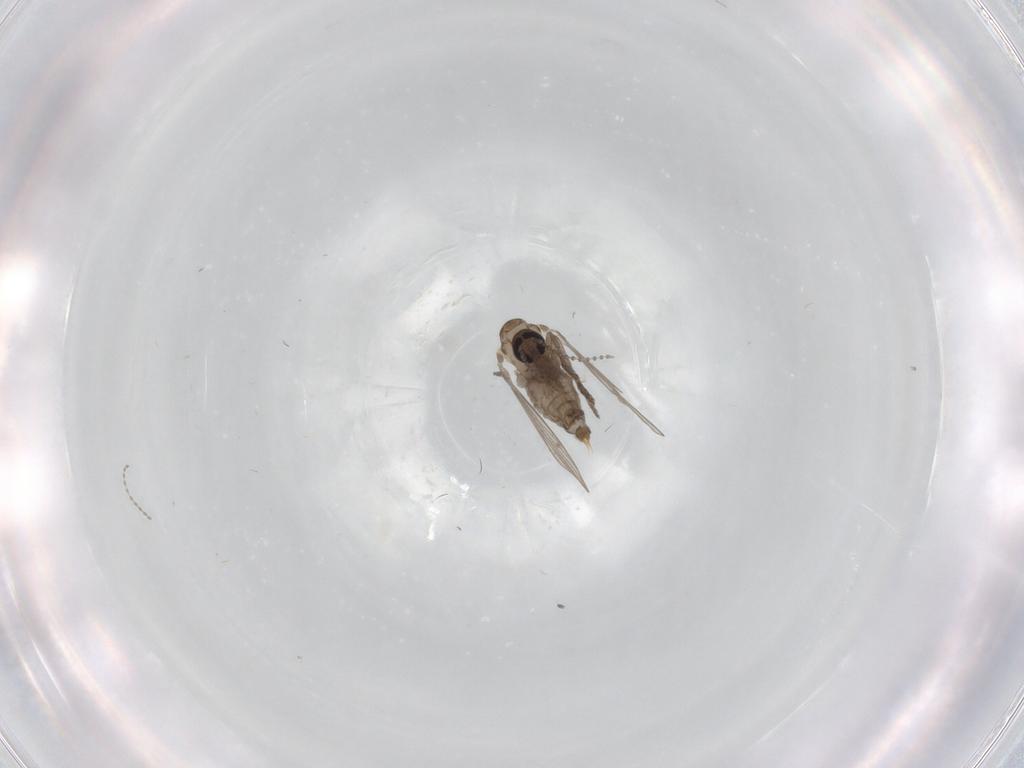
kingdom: Animalia
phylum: Arthropoda
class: Insecta
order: Diptera
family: Psychodidae
